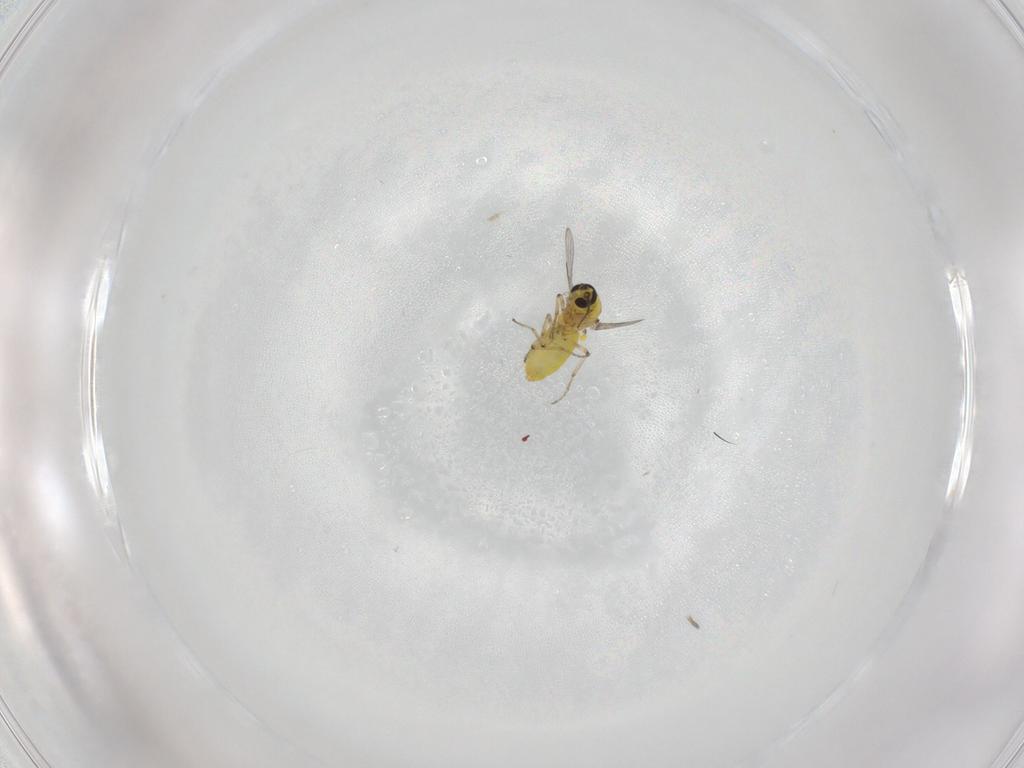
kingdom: Animalia
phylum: Arthropoda
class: Insecta
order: Diptera
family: Ceratopogonidae
